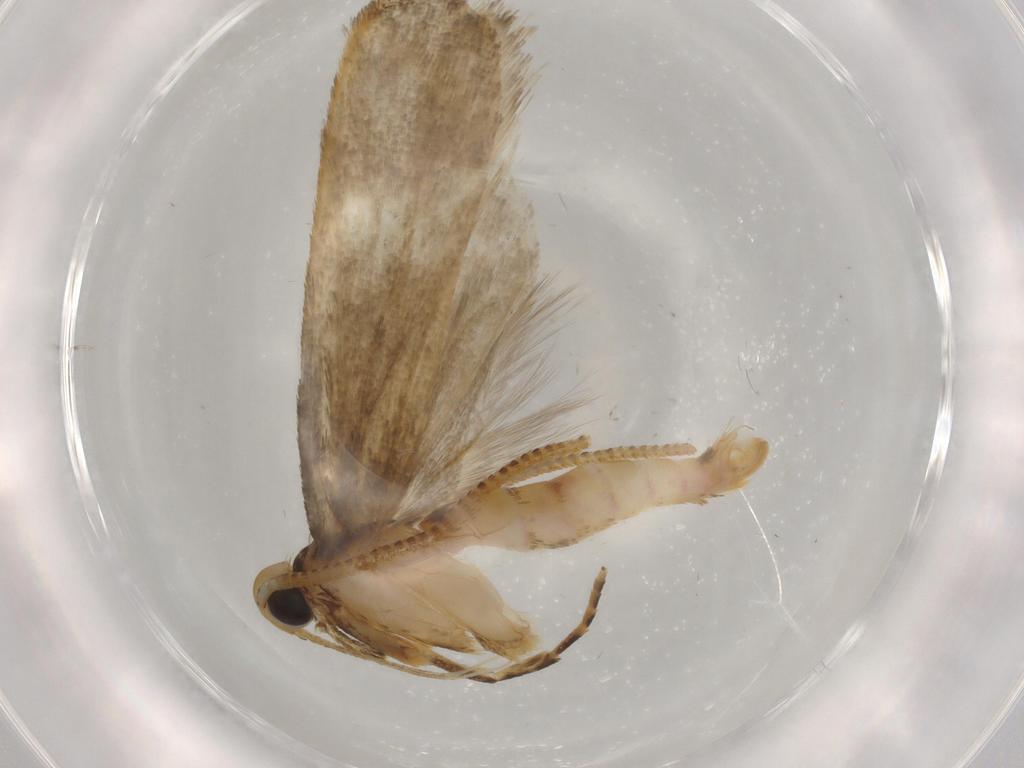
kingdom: Animalia
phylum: Arthropoda
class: Insecta
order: Lepidoptera
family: Autostichidae
